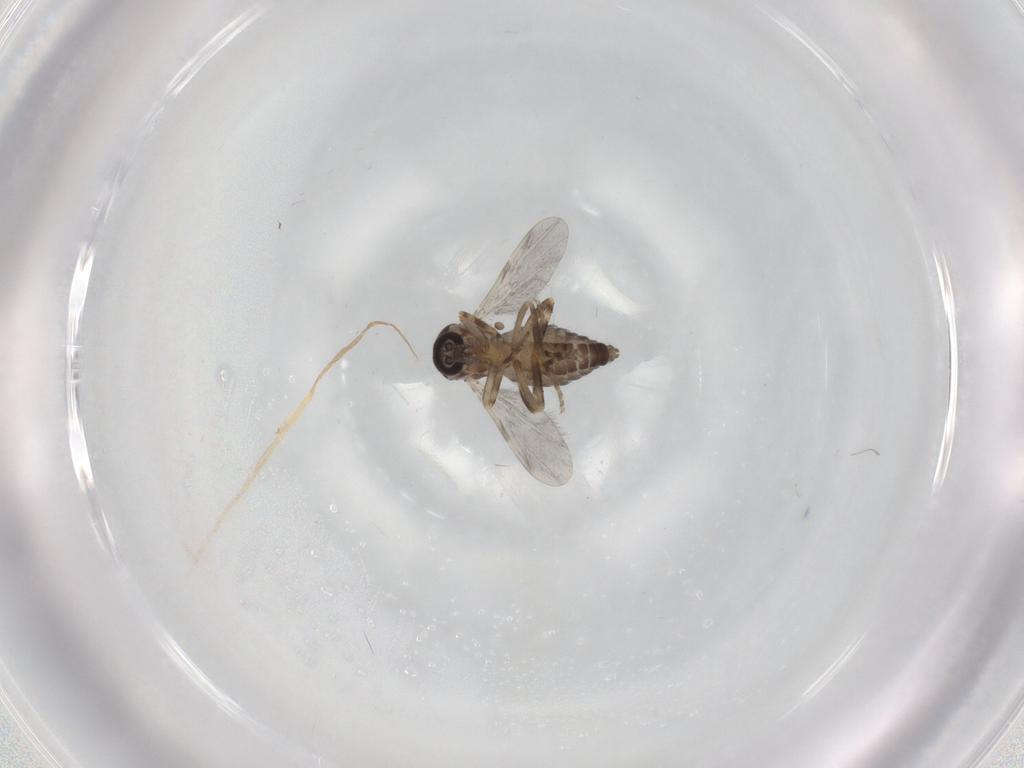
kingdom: Animalia
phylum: Arthropoda
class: Insecta
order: Diptera
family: Ceratopogonidae
